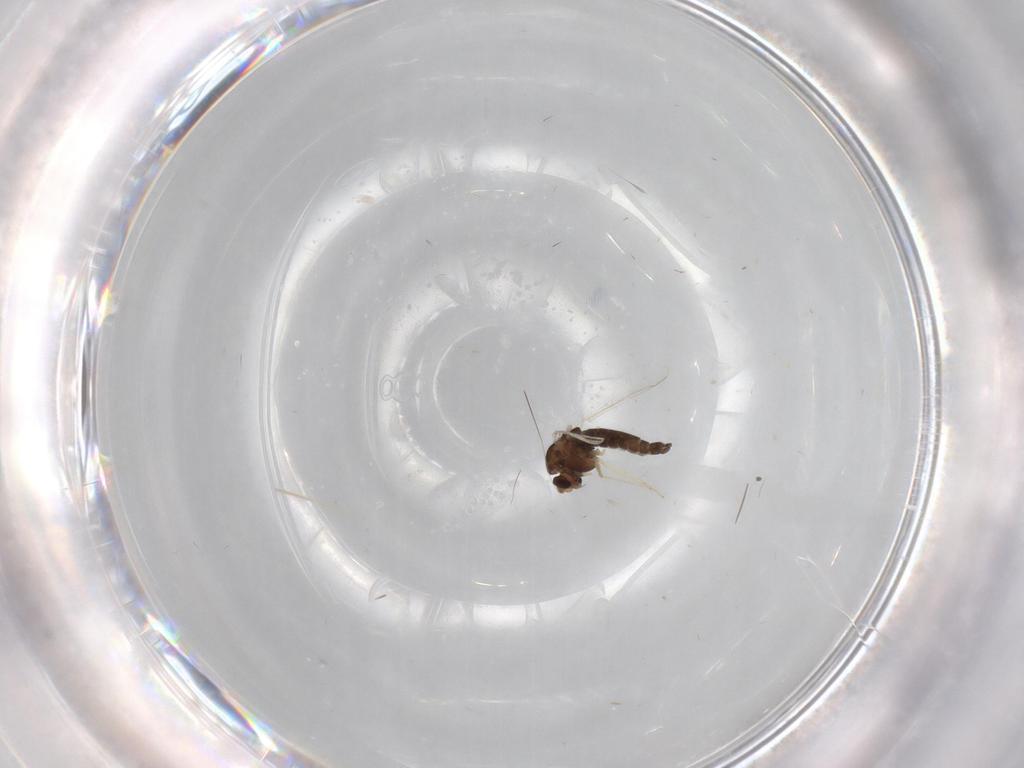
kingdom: Animalia
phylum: Arthropoda
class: Insecta
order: Diptera
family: Chironomidae
